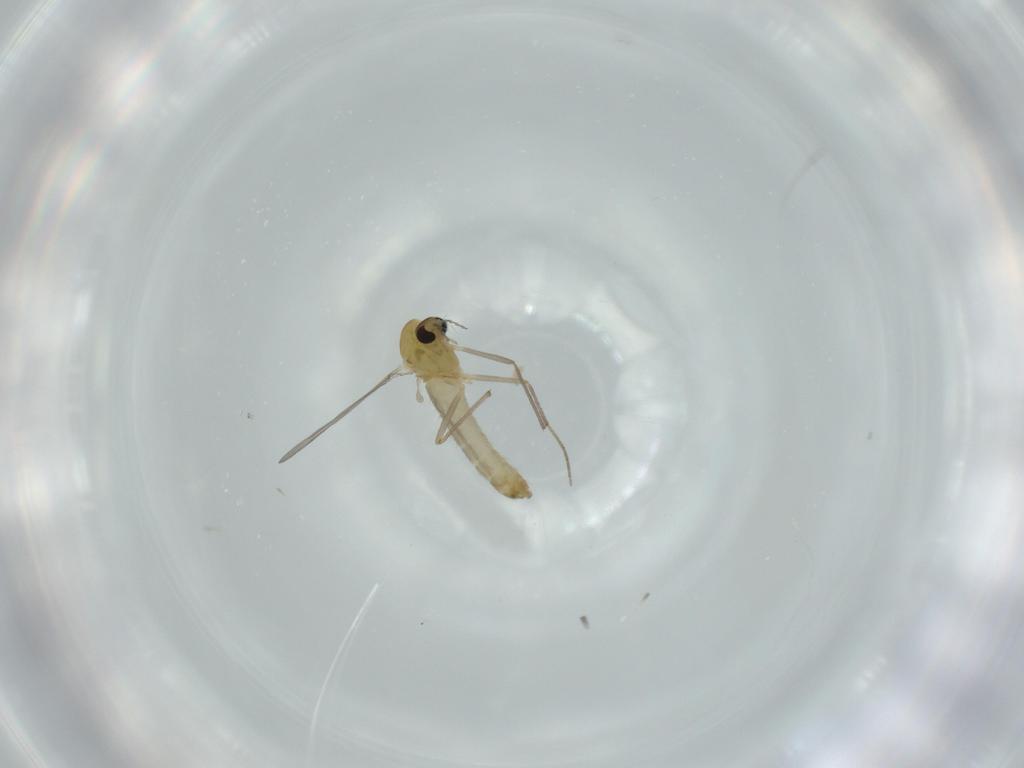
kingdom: Animalia
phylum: Arthropoda
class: Insecta
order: Diptera
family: Chironomidae
